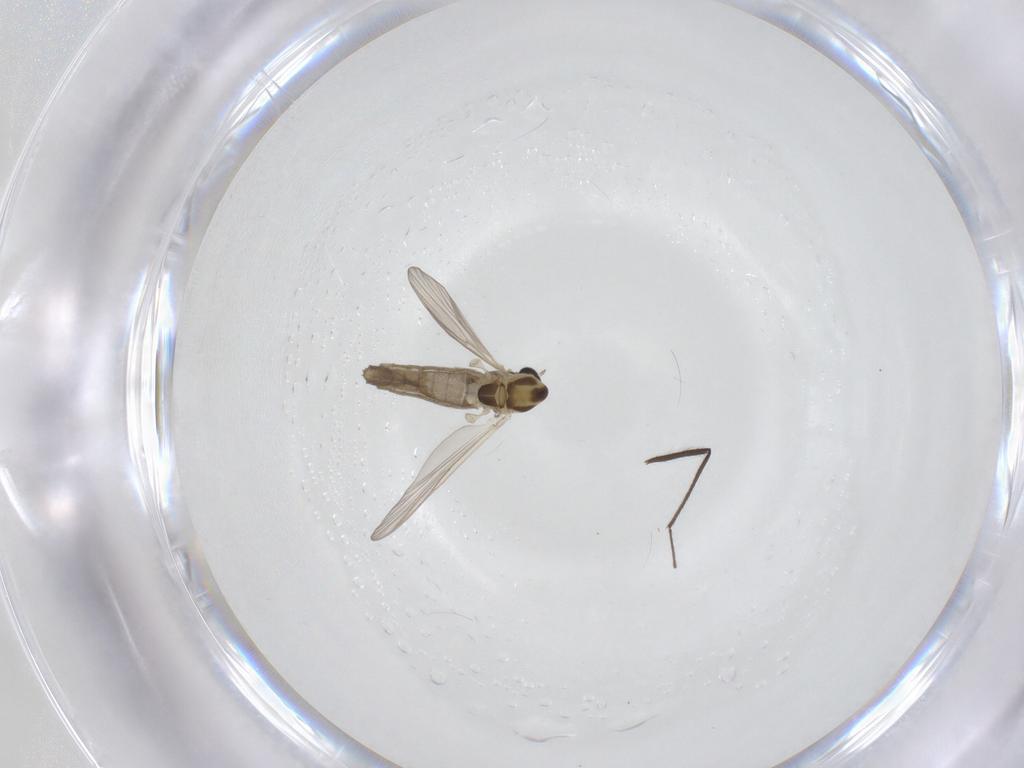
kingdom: Animalia
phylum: Arthropoda
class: Insecta
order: Diptera
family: Chironomidae
